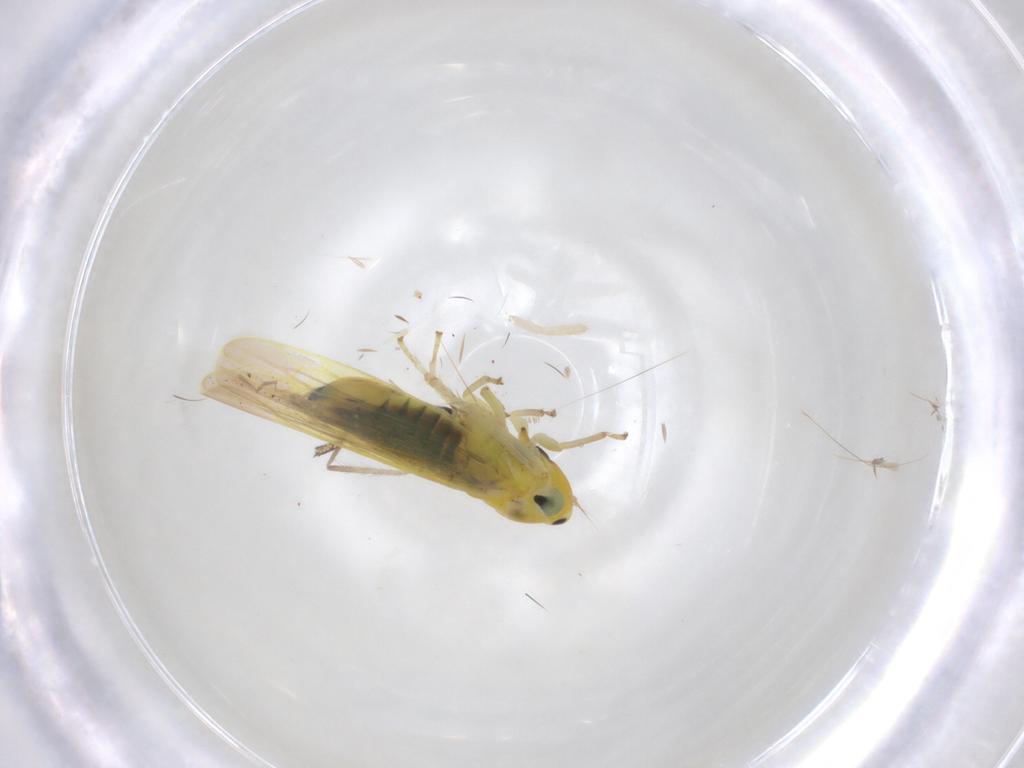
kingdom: Animalia
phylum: Arthropoda
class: Insecta
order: Hemiptera
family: Cicadellidae
